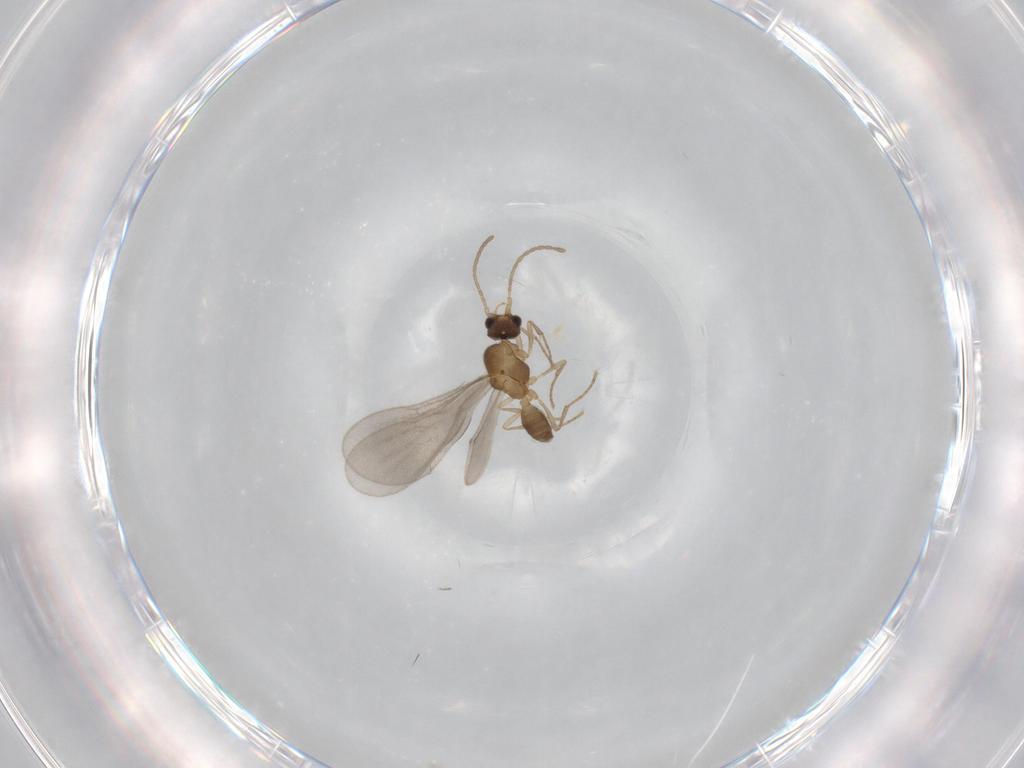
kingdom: Animalia
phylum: Arthropoda
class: Insecta
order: Hymenoptera
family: Formicidae
